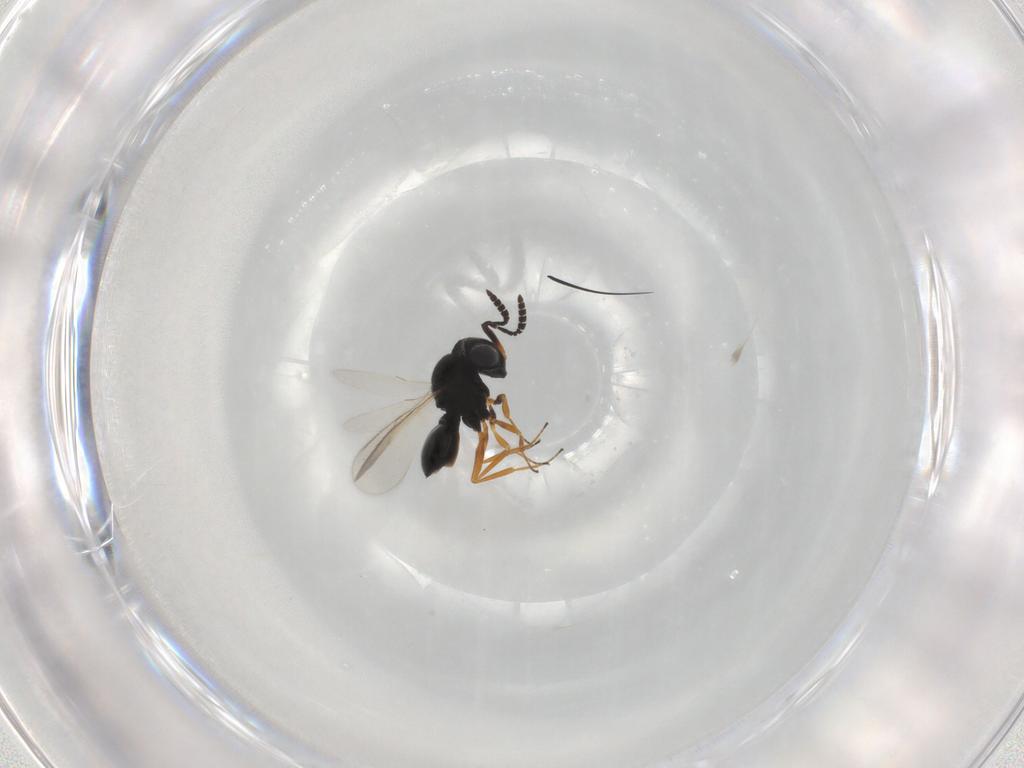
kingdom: Animalia
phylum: Arthropoda
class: Insecta
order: Hymenoptera
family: Scelionidae
